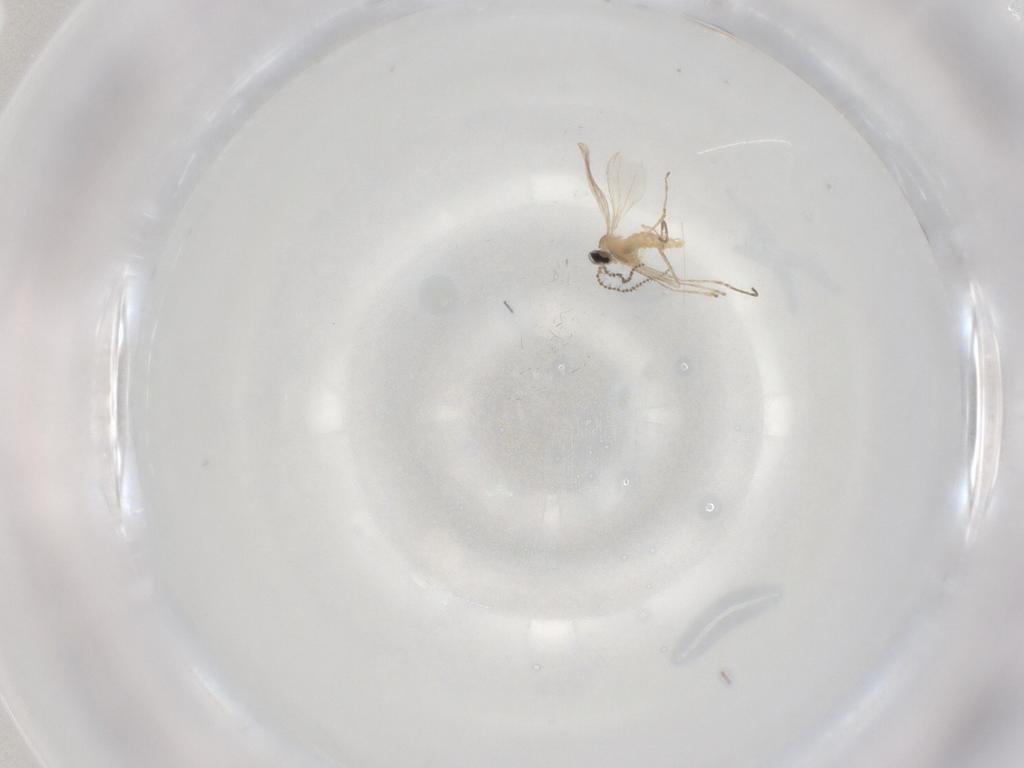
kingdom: Animalia
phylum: Arthropoda
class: Insecta
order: Diptera
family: Cecidomyiidae
